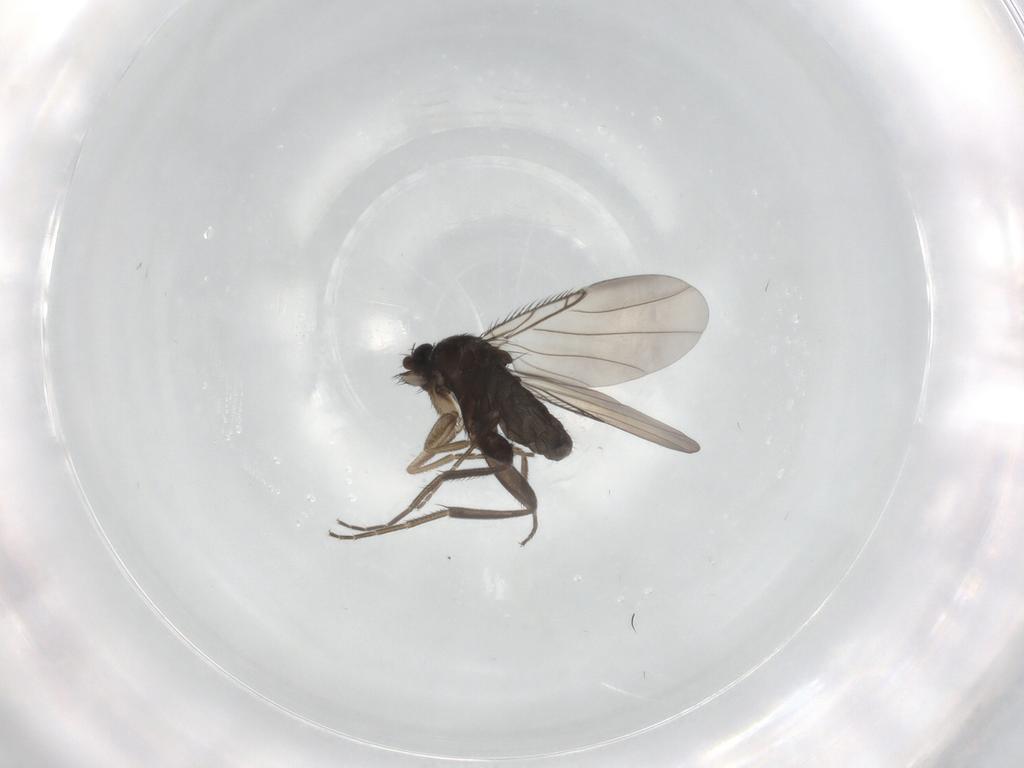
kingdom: Animalia
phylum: Arthropoda
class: Insecta
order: Diptera
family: Phoridae
